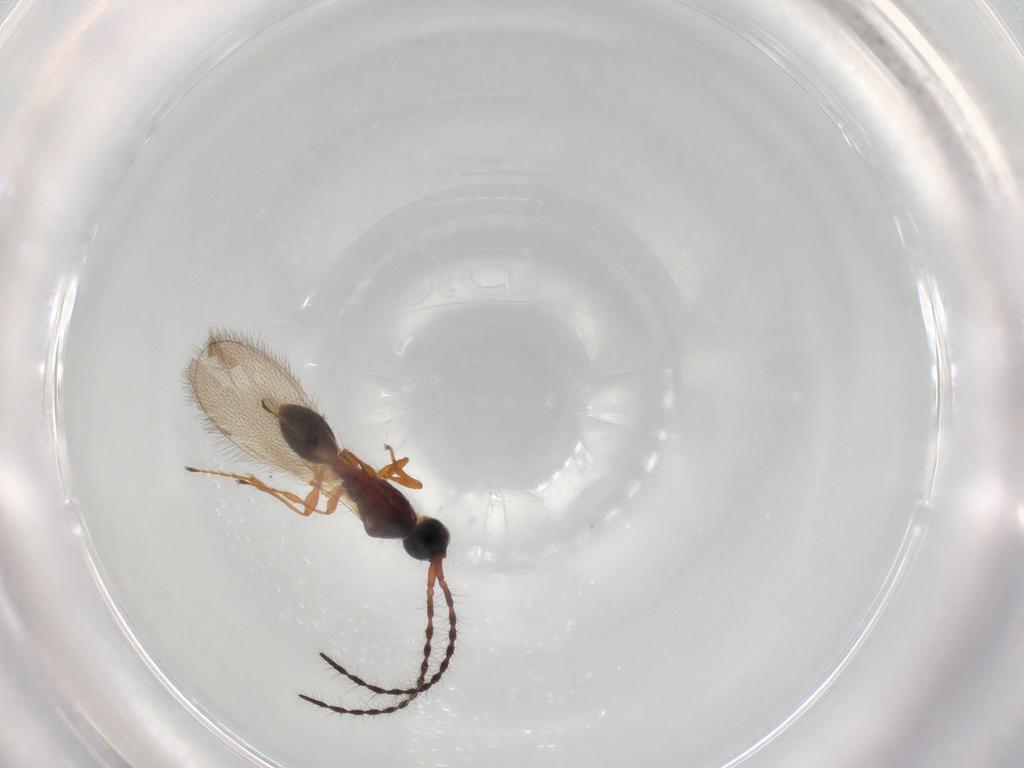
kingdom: Animalia
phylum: Arthropoda
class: Insecta
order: Hymenoptera
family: Diapriidae
